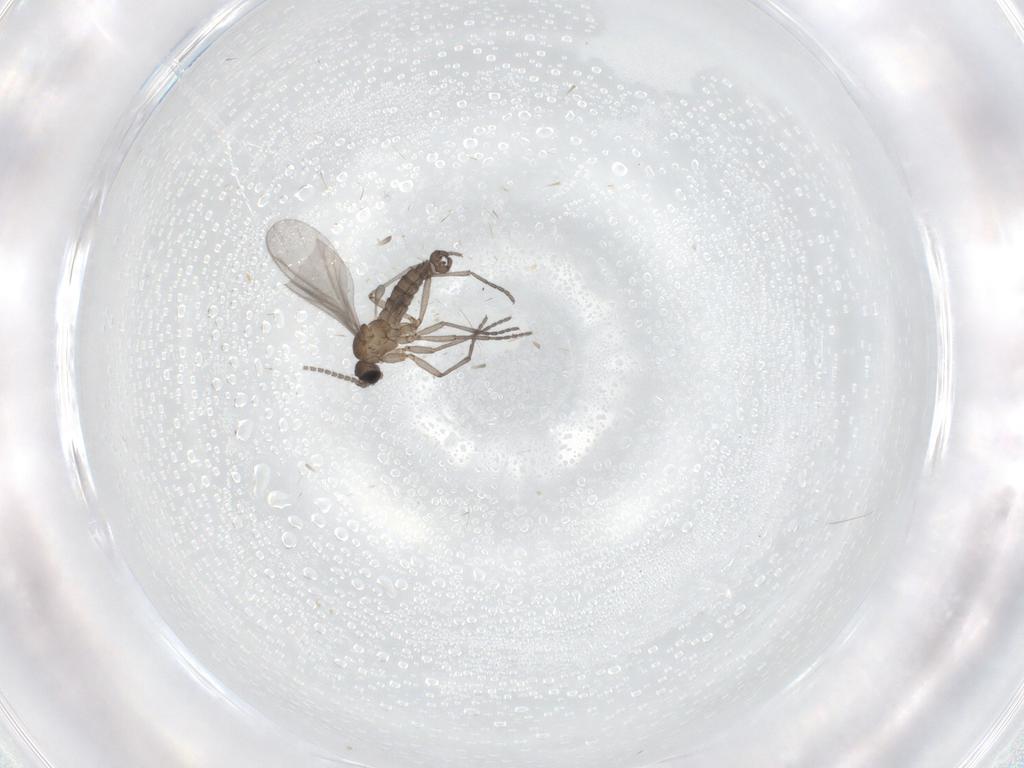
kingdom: Animalia
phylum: Arthropoda
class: Insecta
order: Diptera
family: Sciaridae
